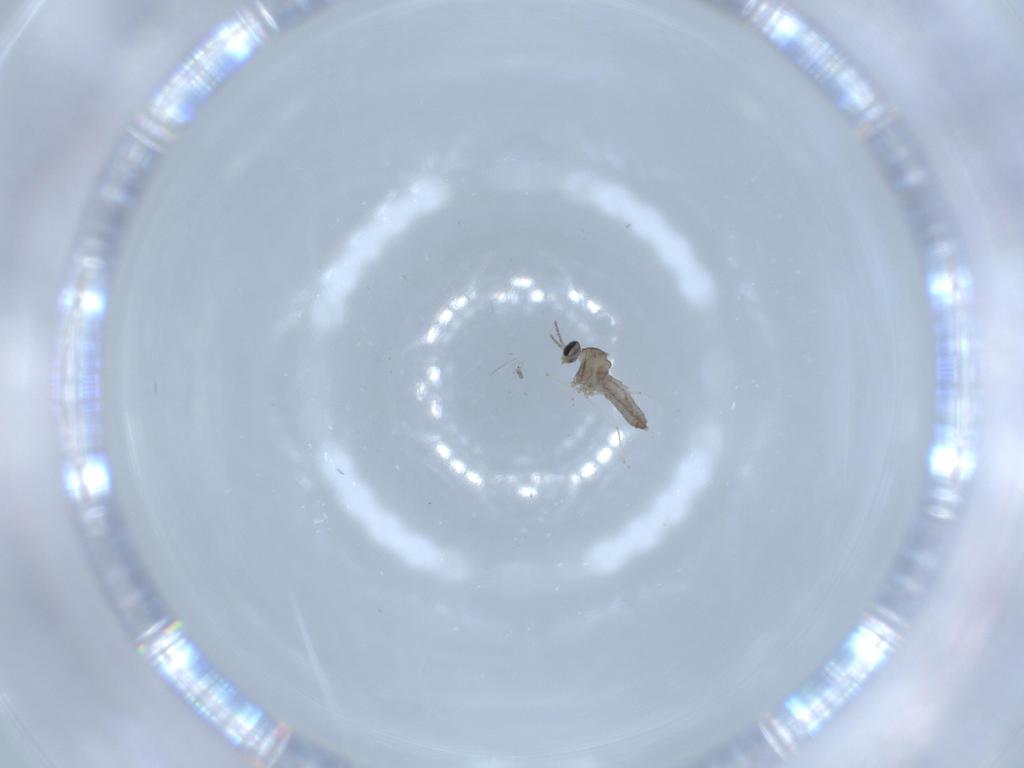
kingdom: Animalia
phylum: Arthropoda
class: Insecta
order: Diptera
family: Cecidomyiidae
